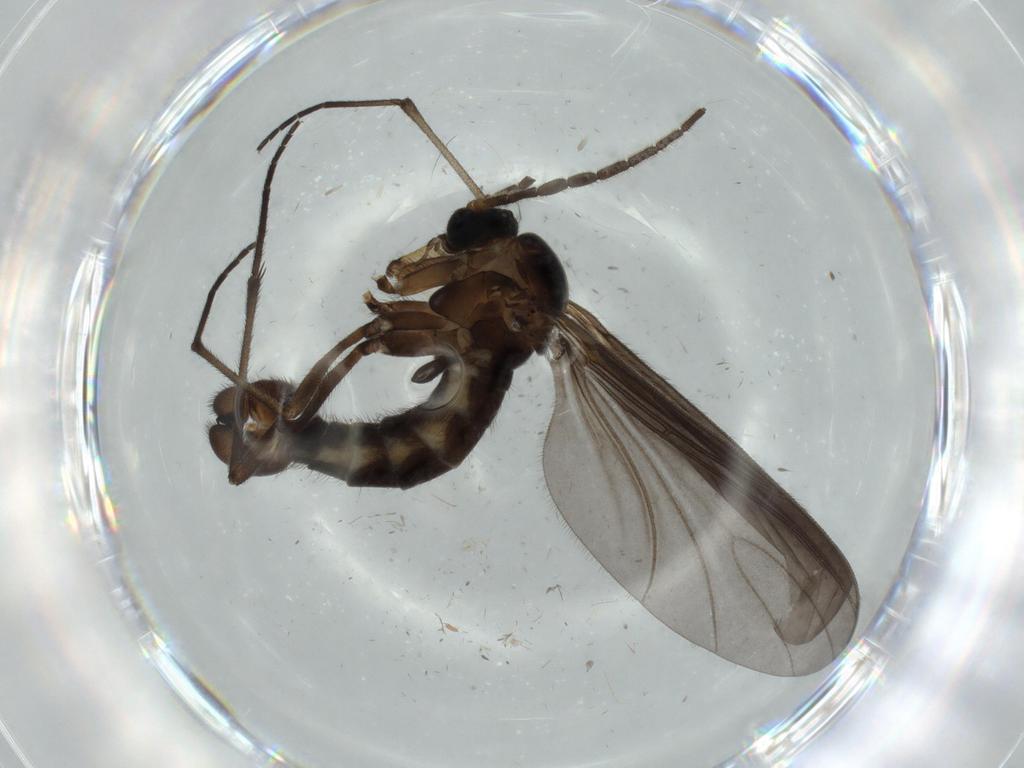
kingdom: Animalia
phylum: Arthropoda
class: Insecta
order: Diptera
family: Sciaridae
